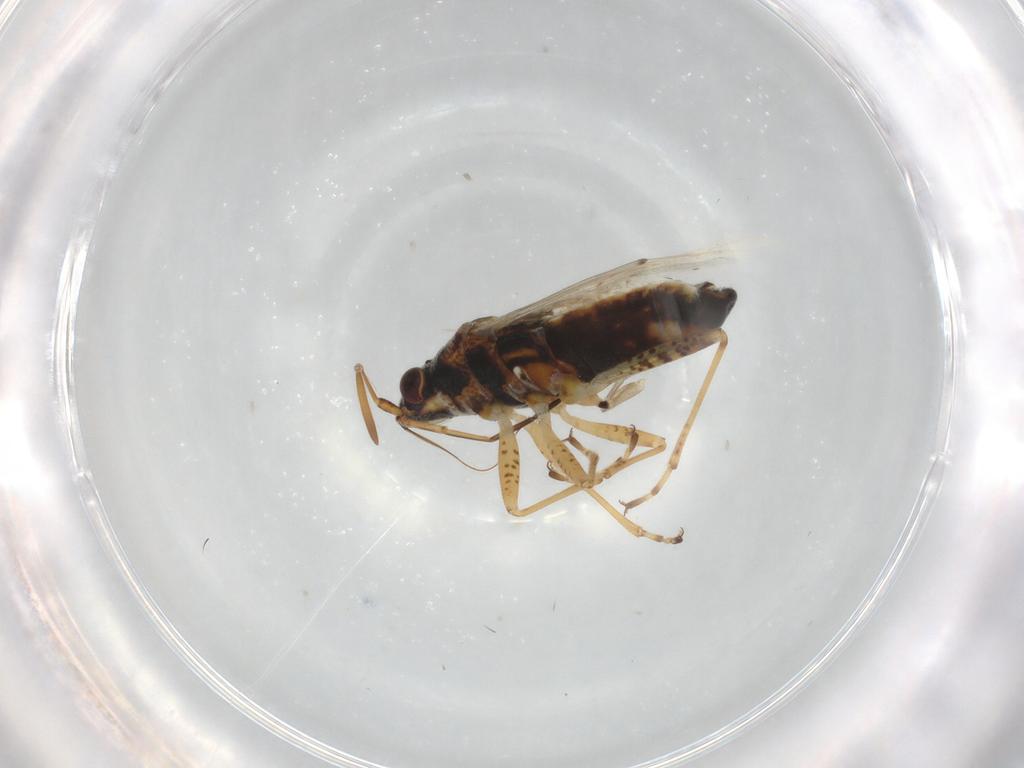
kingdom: Animalia
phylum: Arthropoda
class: Insecta
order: Hemiptera
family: Lygaeidae
